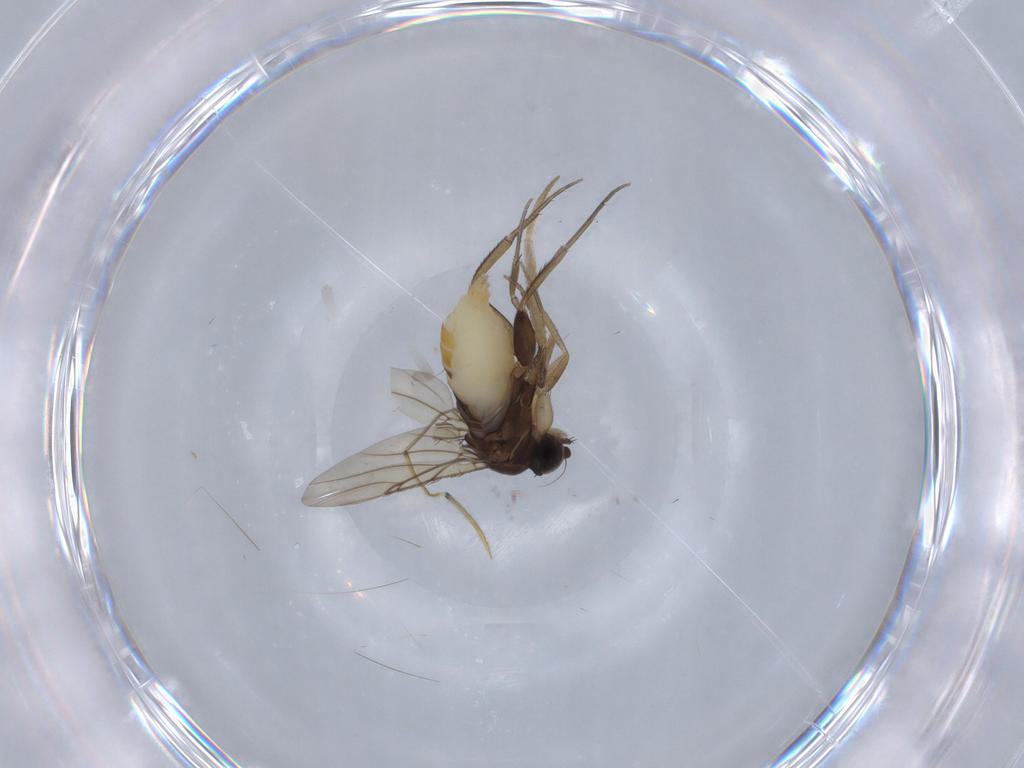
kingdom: Animalia
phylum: Arthropoda
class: Insecta
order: Diptera
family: Phoridae
